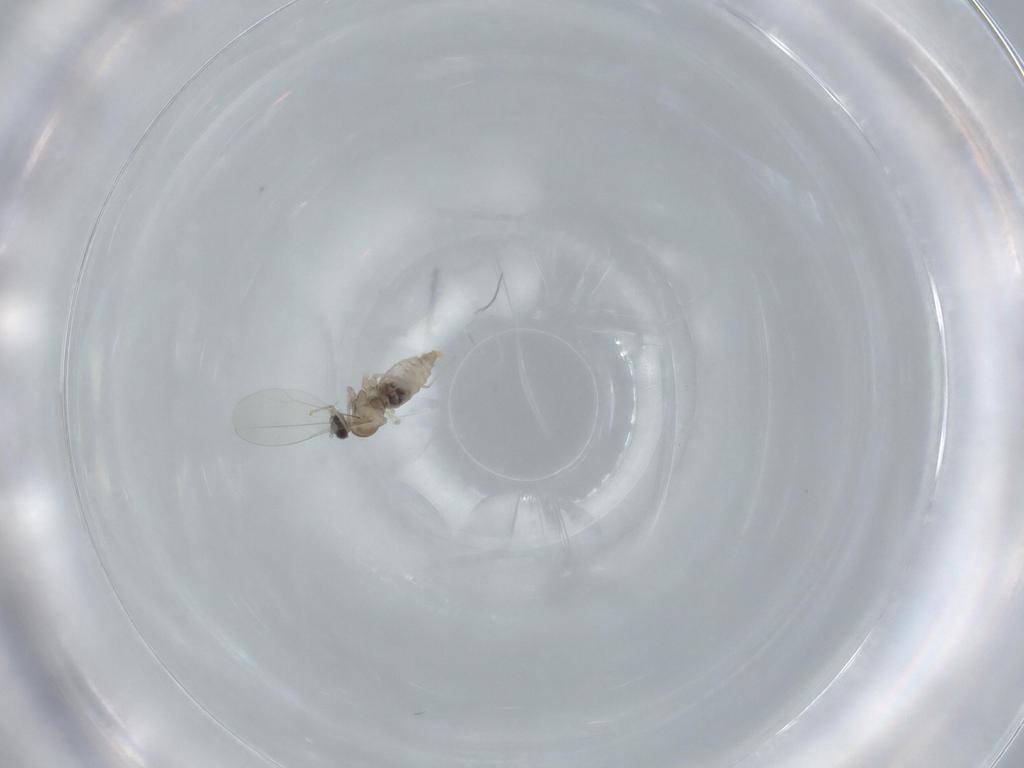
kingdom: Animalia
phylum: Arthropoda
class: Insecta
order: Diptera
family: Cecidomyiidae
